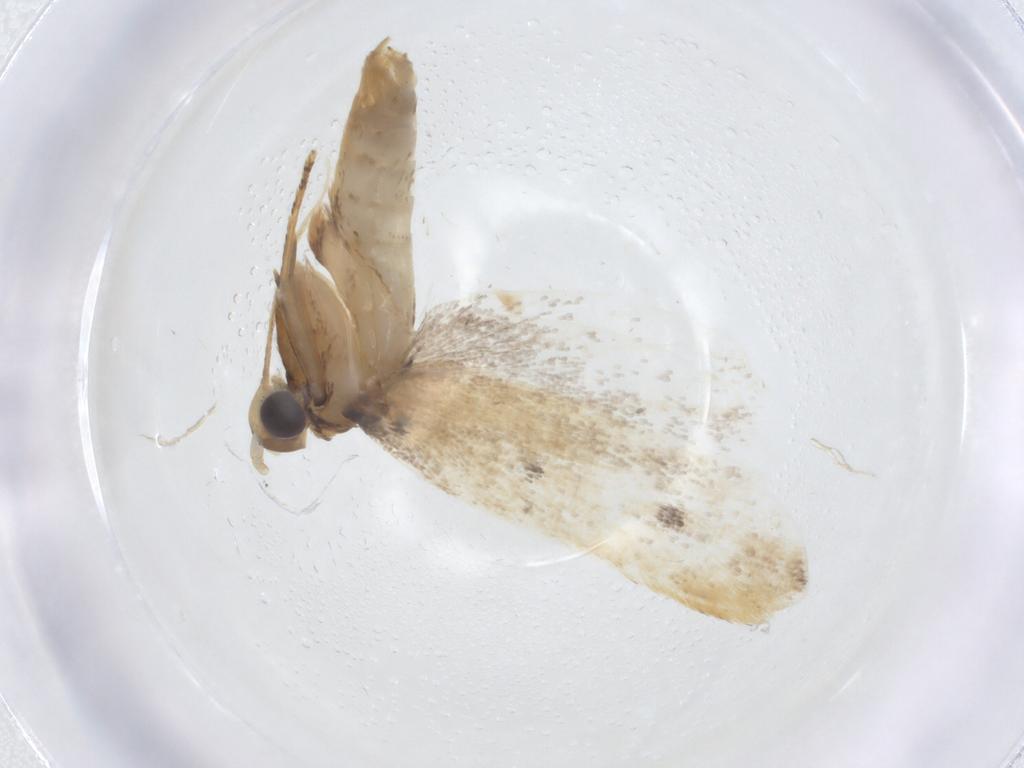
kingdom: Animalia
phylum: Arthropoda
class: Insecta
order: Lepidoptera
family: Lecithoceridae
